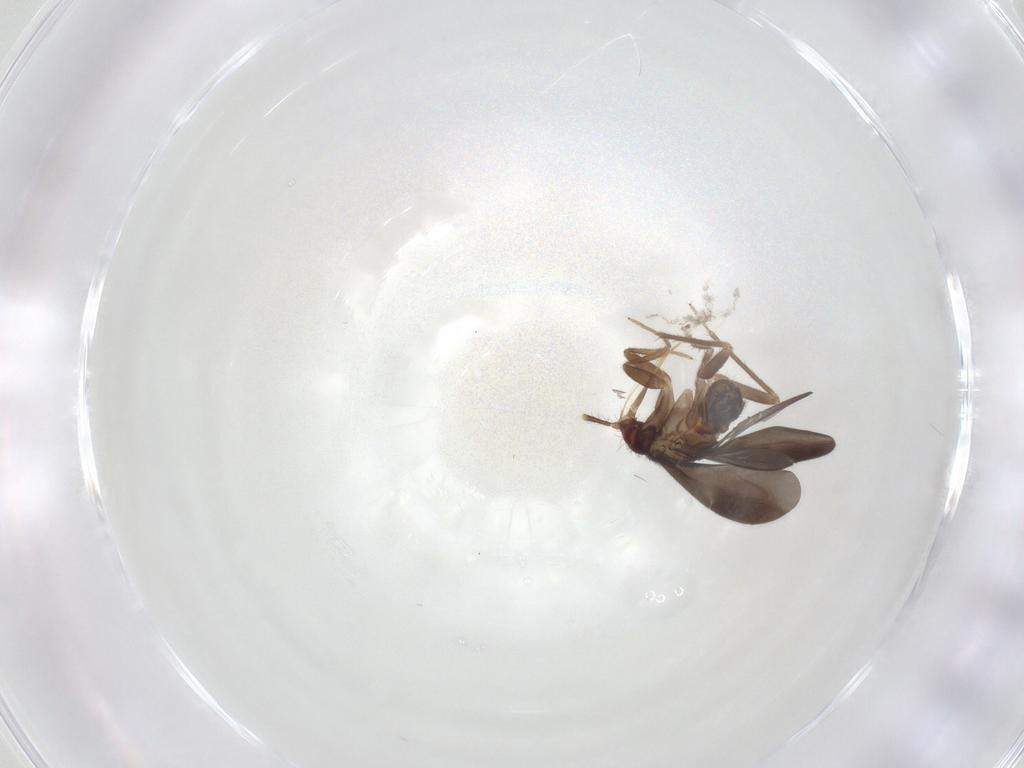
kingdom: Animalia
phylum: Arthropoda
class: Insecta
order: Hemiptera
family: Ceratocombidae
